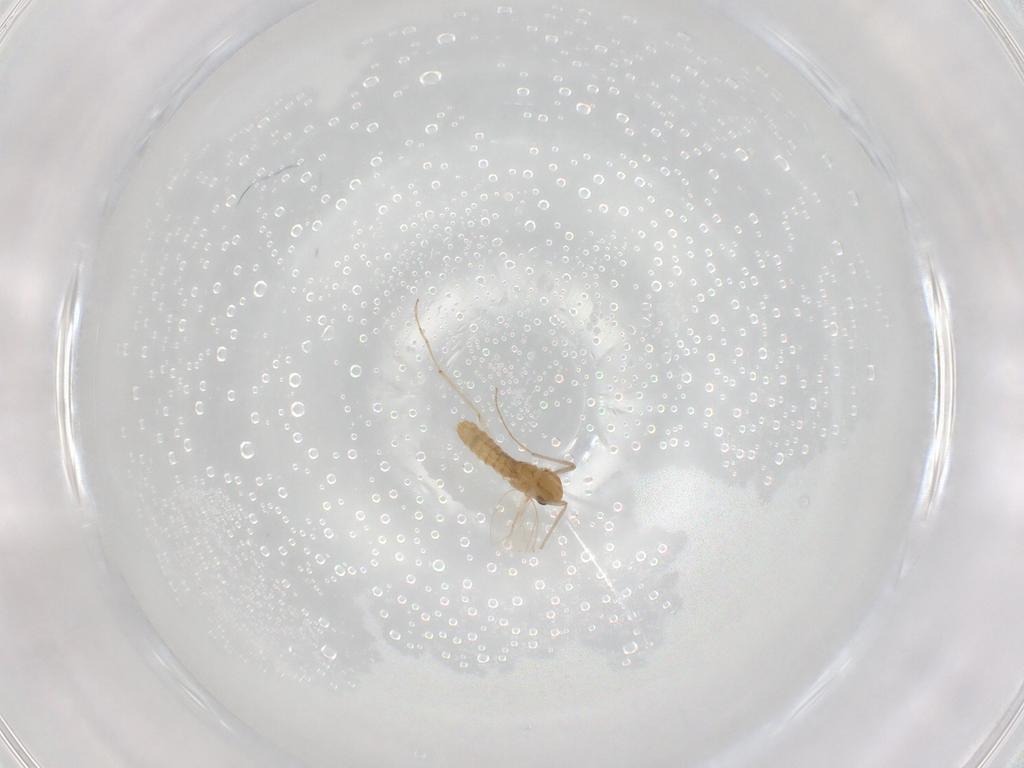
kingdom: Animalia
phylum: Arthropoda
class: Insecta
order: Diptera
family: Chironomidae
